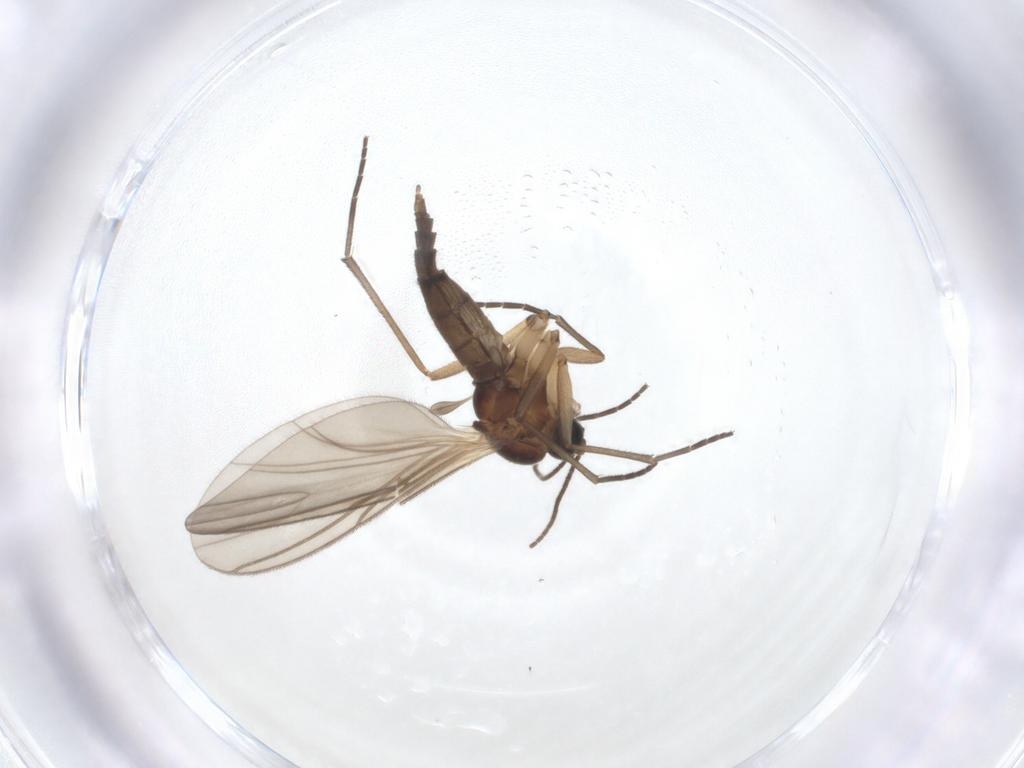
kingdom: Animalia
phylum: Arthropoda
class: Insecta
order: Diptera
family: Sciaridae
